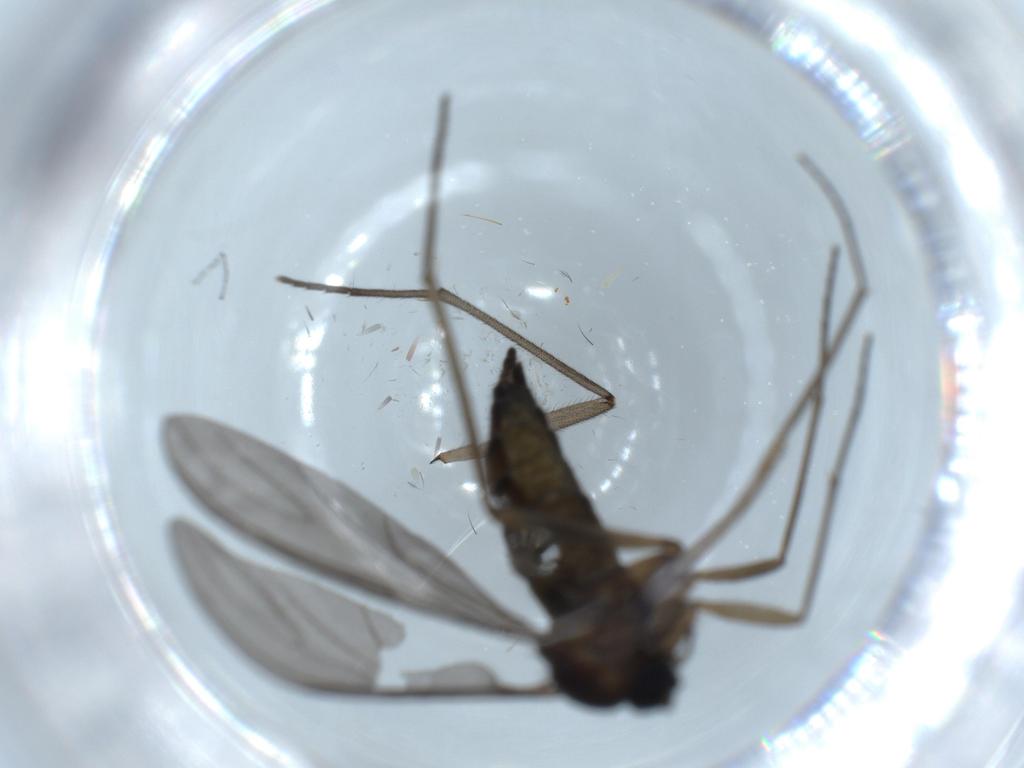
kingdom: Animalia
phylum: Arthropoda
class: Insecta
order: Diptera
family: Sciaridae
